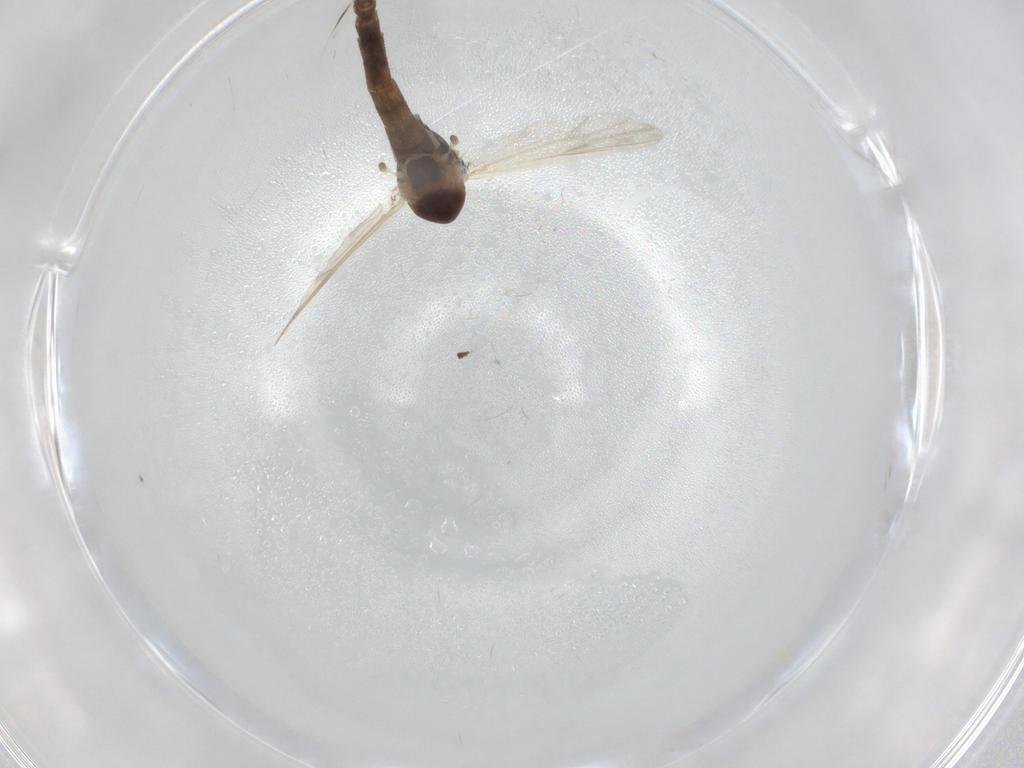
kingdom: Animalia
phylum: Arthropoda
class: Insecta
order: Diptera
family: Chironomidae
